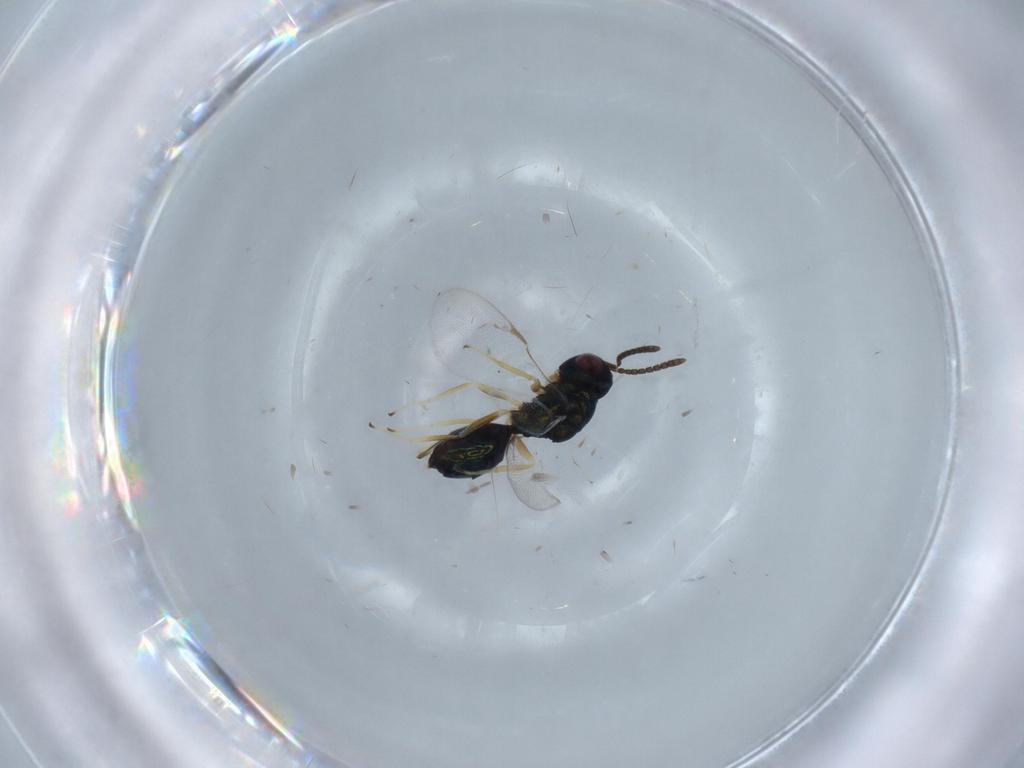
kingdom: Animalia
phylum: Arthropoda
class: Insecta
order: Hymenoptera
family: Pteromalidae
